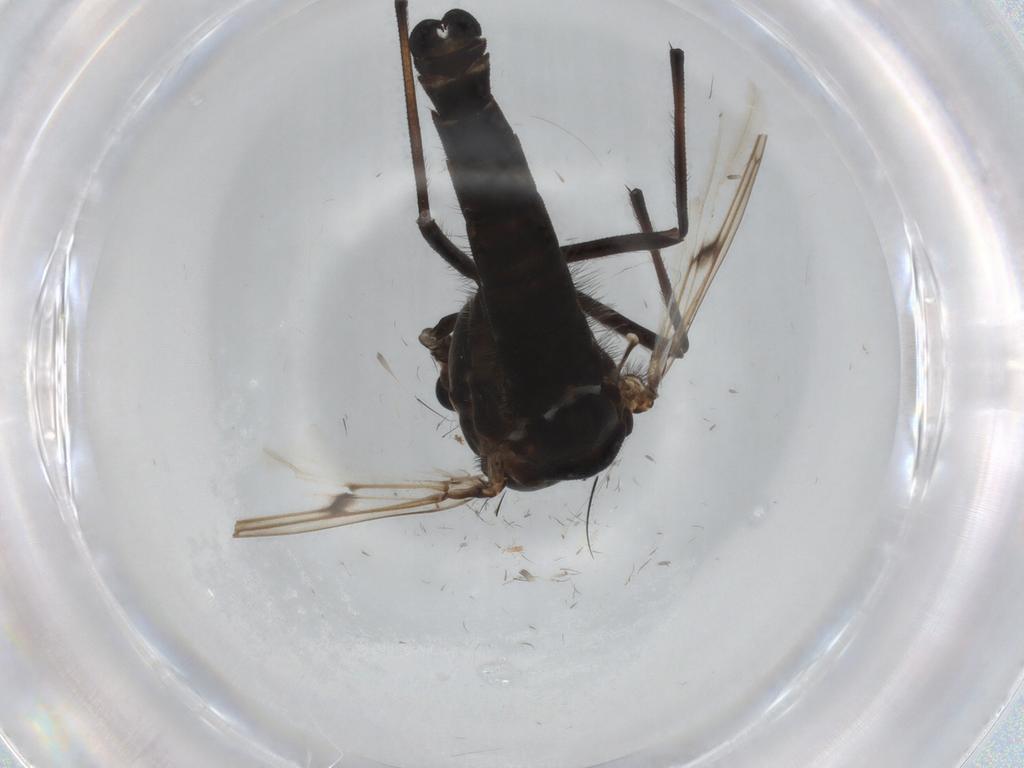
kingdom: Animalia
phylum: Arthropoda
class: Insecta
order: Diptera
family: Chironomidae
